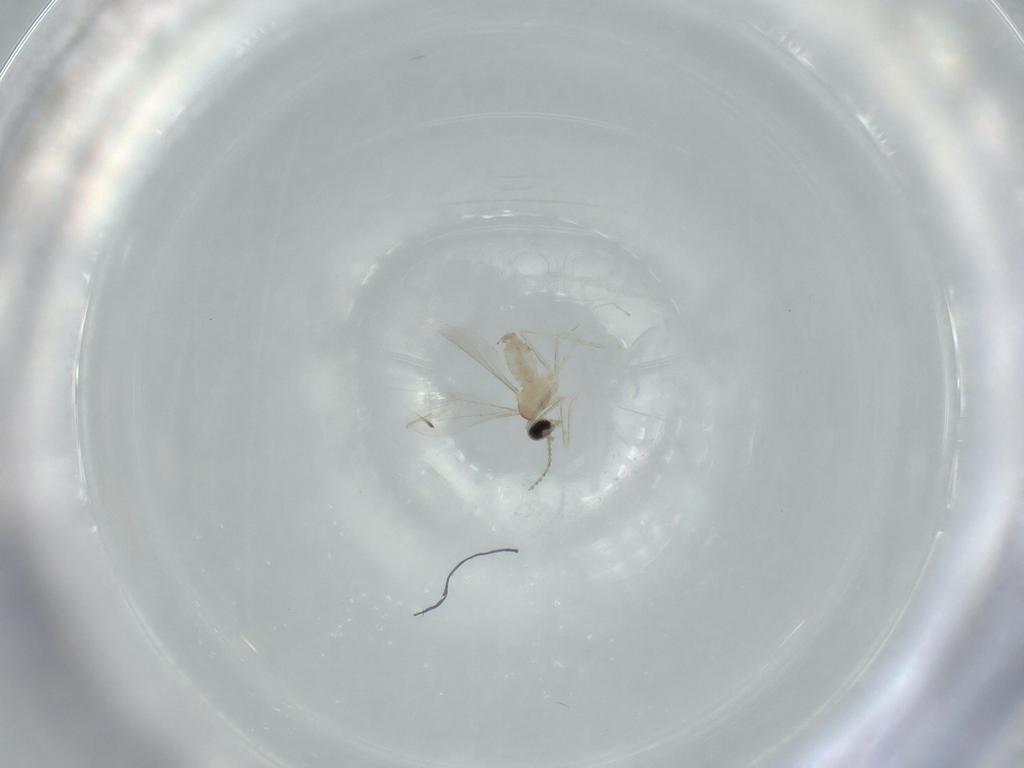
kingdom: Animalia
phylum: Arthropoda
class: Insecta
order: Diptera
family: Cecidomyiidae
